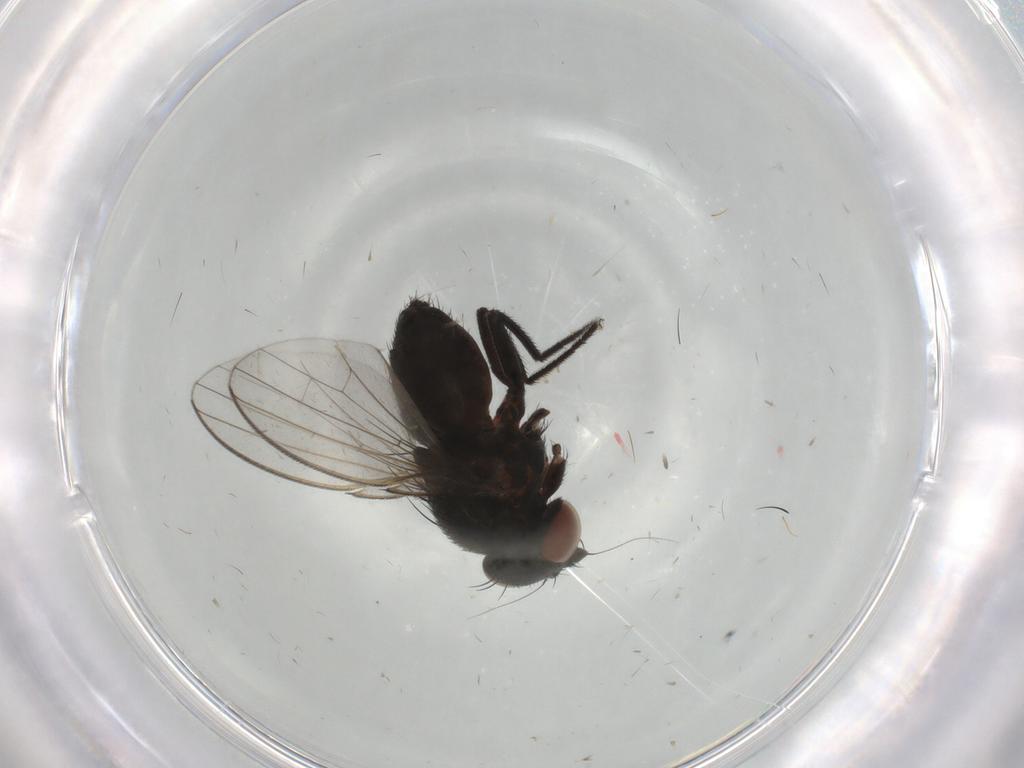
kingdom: Animalia
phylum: Arthropoda
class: Insecta
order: Diptera
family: Milichiidae
